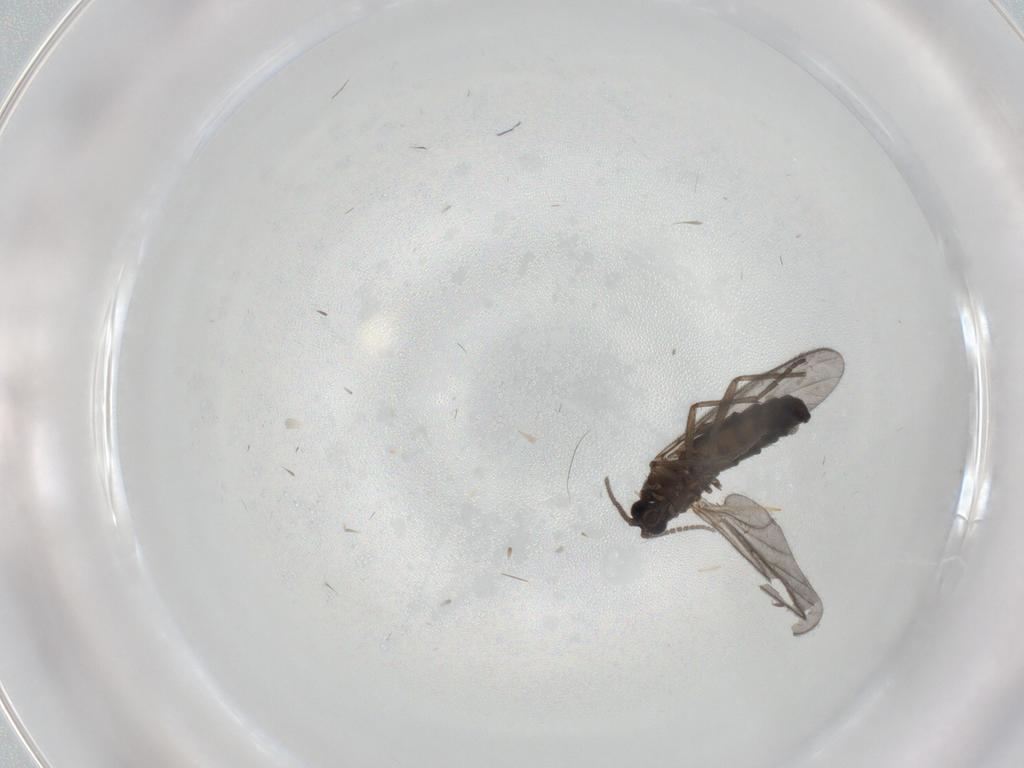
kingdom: Animalia
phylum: Arthropoda
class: Insecta
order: Diptera
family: Sciaridae
